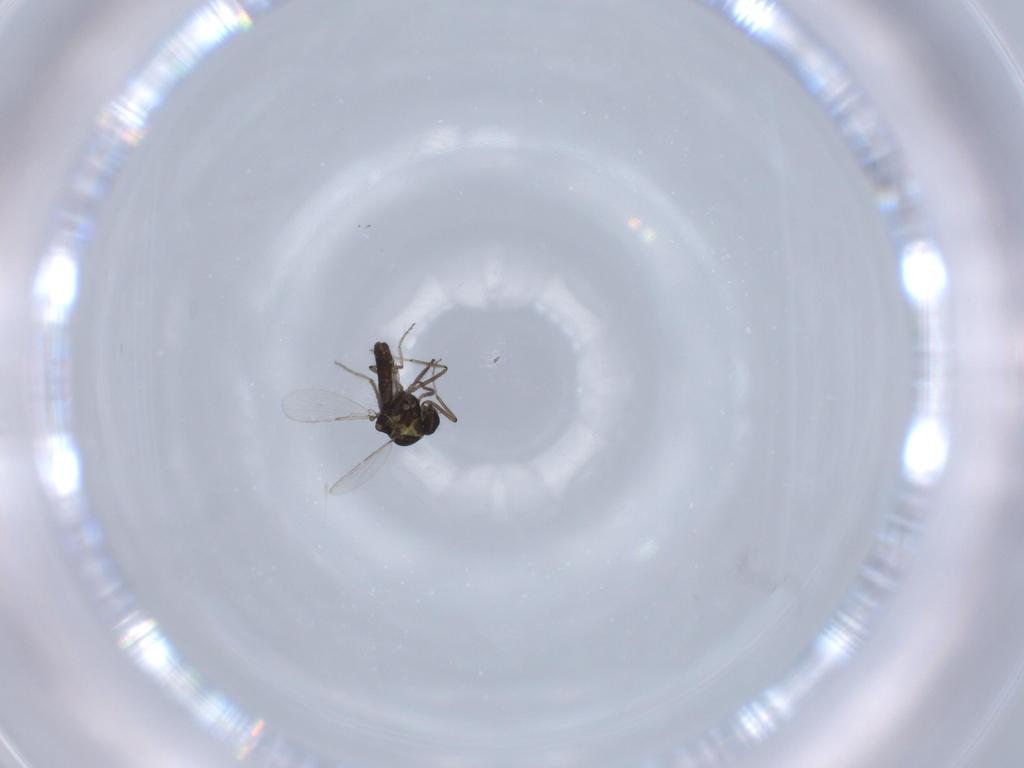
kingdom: Animalia
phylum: Arthropoda
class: Insecta
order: Diptera
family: Ceratopogonidae
